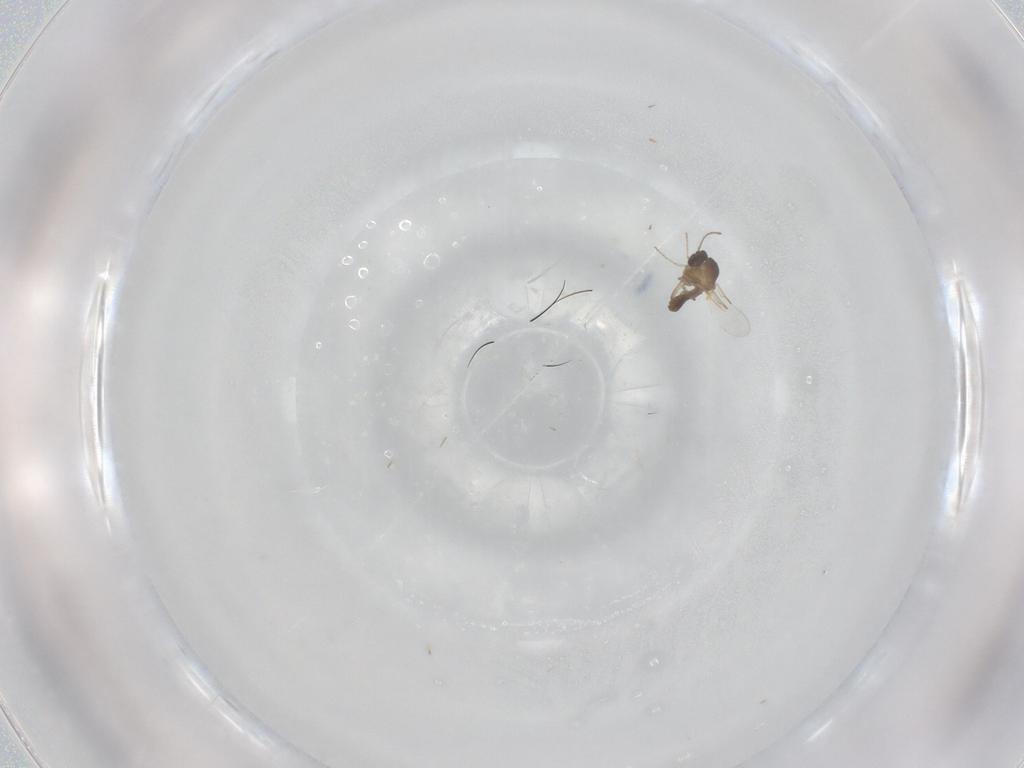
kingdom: Animalia
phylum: Arthropoda
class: Insecta
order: Diptera
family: Ceratopogonidae
